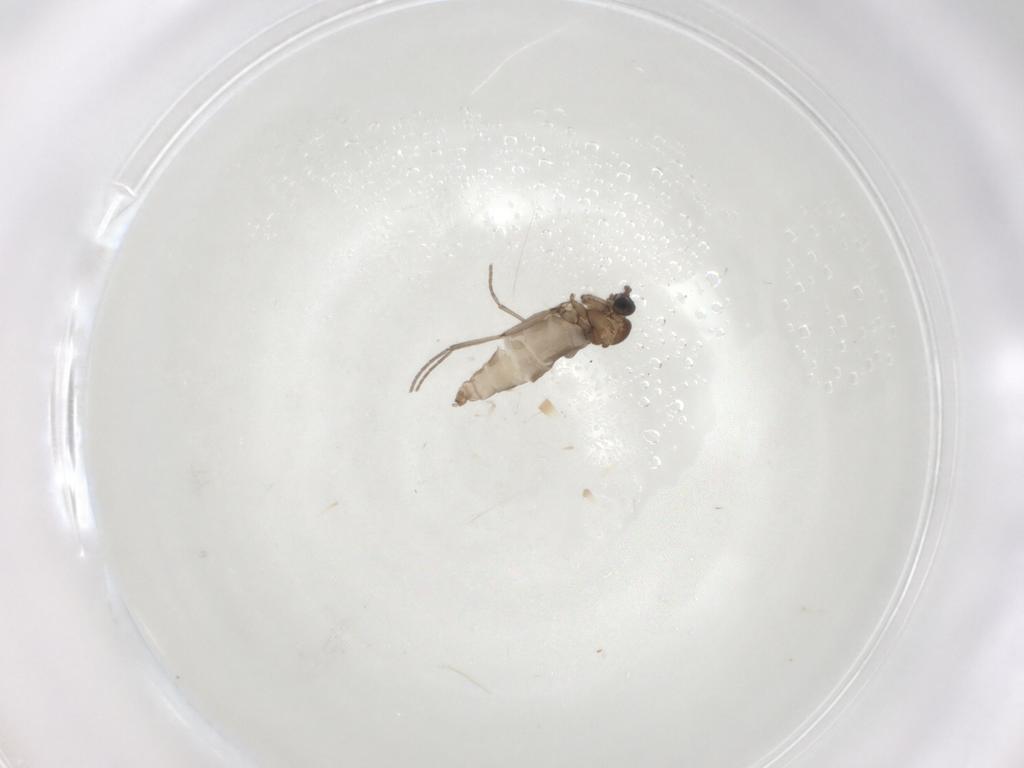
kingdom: Animalia
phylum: Arthropoda
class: Insecta
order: Diptera
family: Sciaridae
